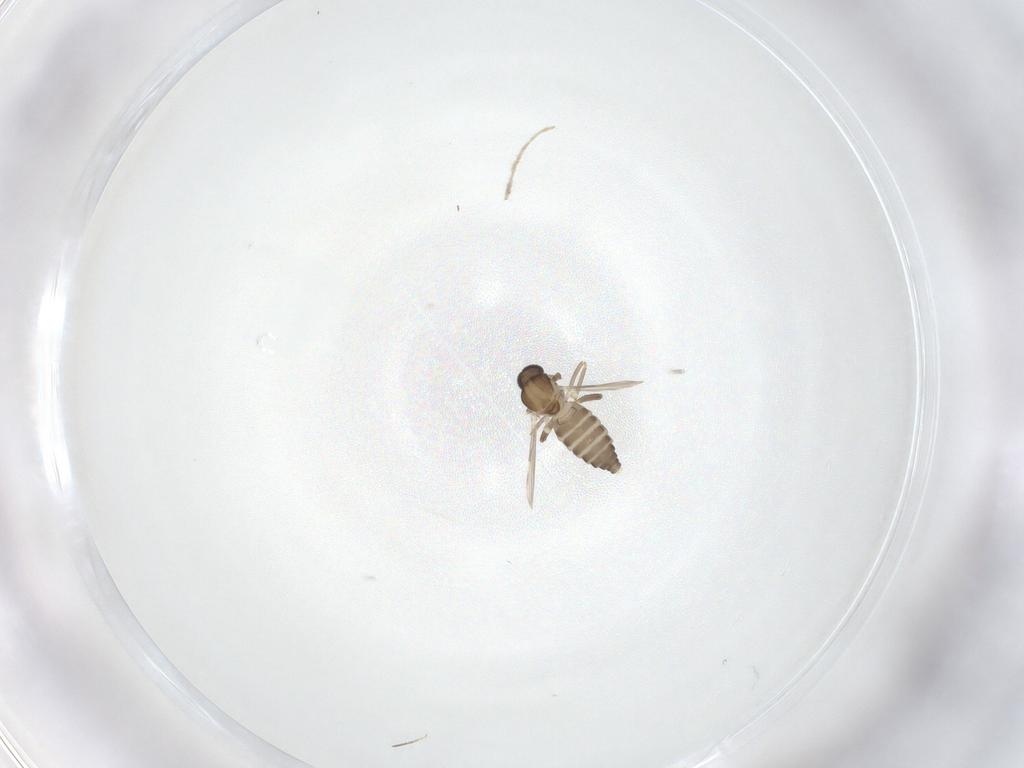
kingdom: Animalia
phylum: Arthropoda
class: Insecta
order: Diptera
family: Ceratopogonidae
